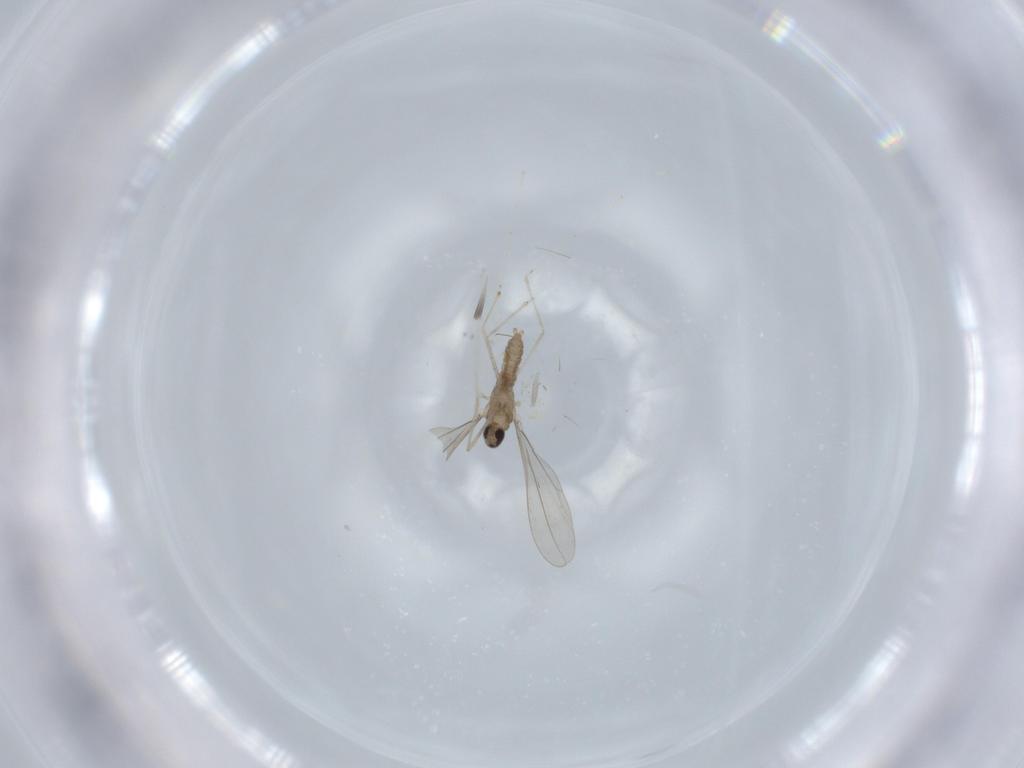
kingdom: Animalia
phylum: Arthropoda
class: Insecta
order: Diptera
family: Cecidomyiidae
